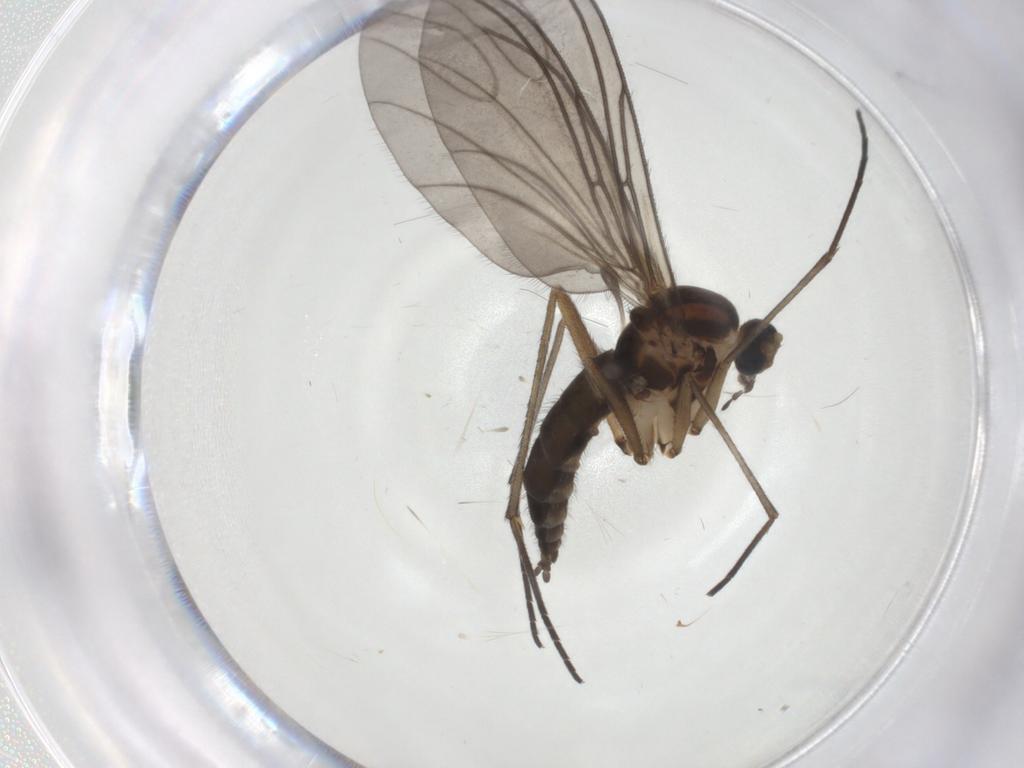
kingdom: Animalia
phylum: Arthropoda
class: Insecta
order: Diptera
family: Sciaridae
